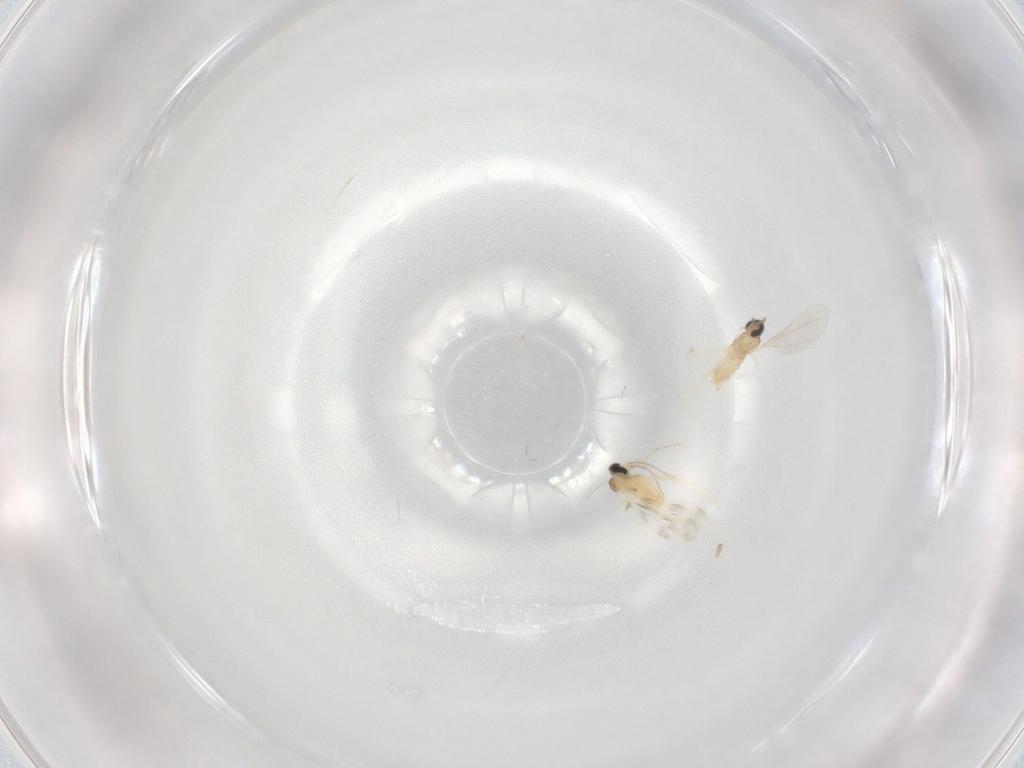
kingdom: Animalia
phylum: Arthropoda
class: Insecta
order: Diptera
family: Cecidomyiidae
